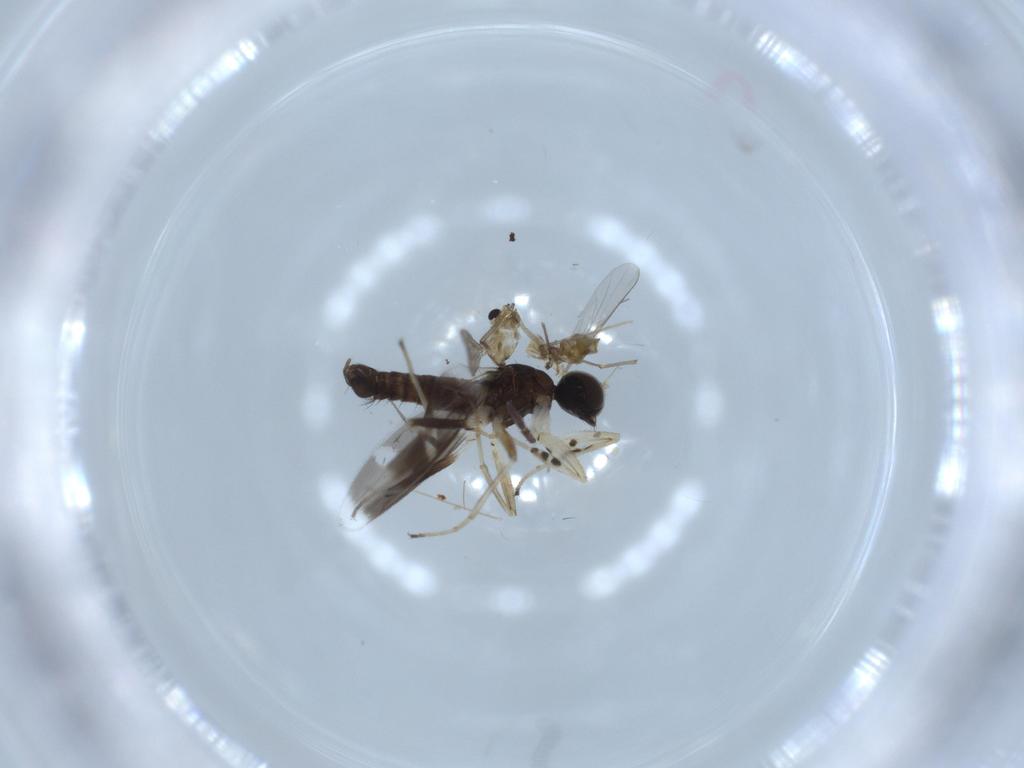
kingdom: Animalia
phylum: Arthropoda
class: Insecta
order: Diptera
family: Chironomidae
